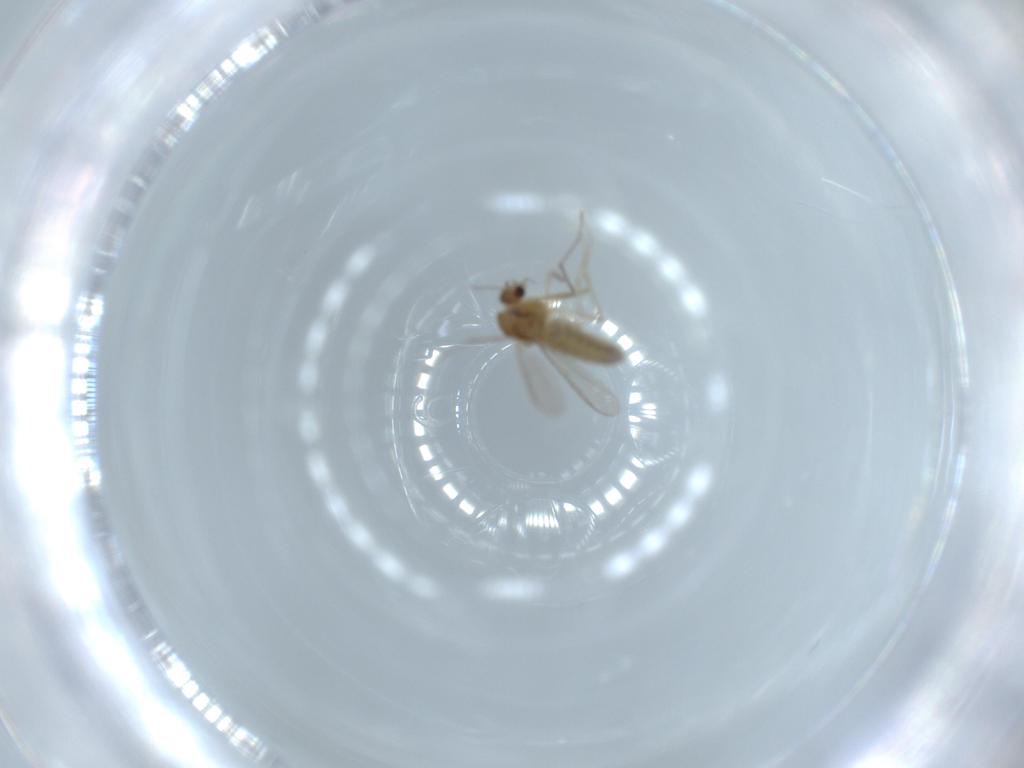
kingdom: Animalia
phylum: Arthropoda
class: Insecta
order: Diptera
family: Chironomidae
